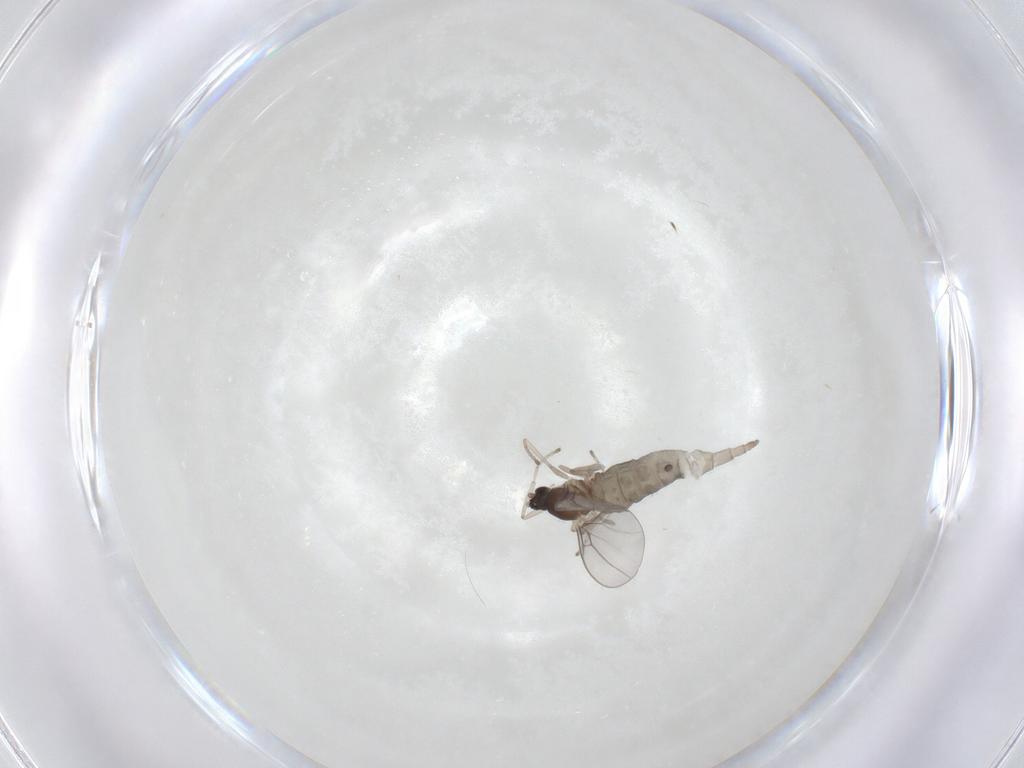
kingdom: Animalia
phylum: Arthropoda
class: Insecta
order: Diptera
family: Cecidomyiidae
